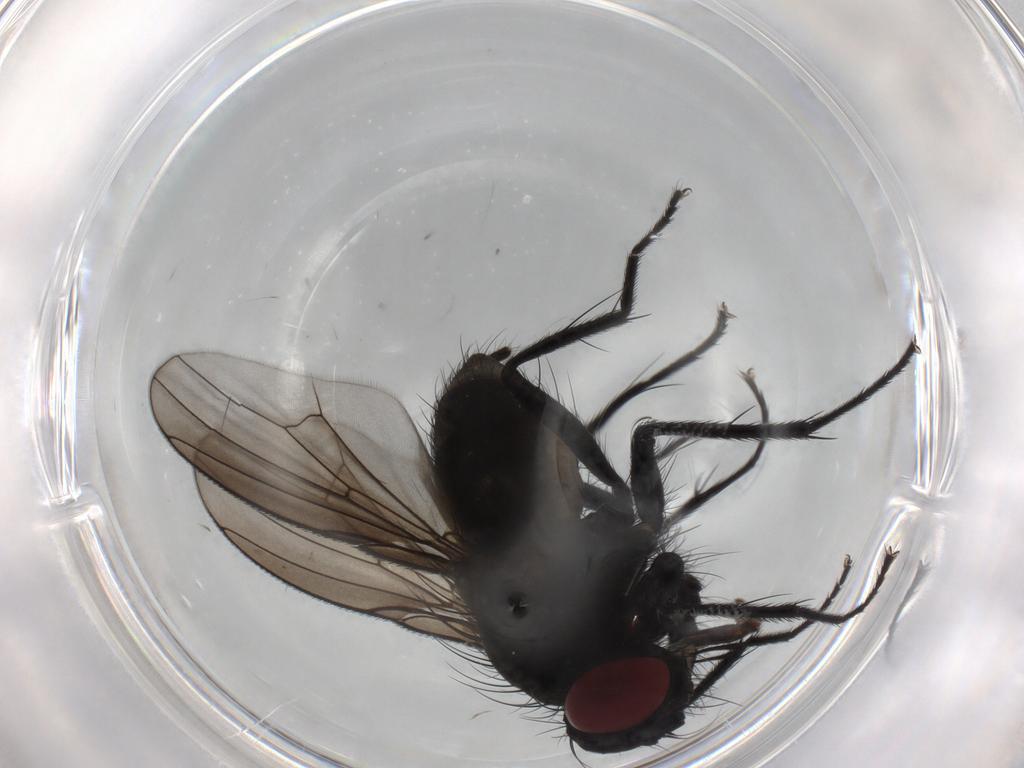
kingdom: Animalia
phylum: Arthropoda
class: Insecta
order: Diptera
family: Muscidae
